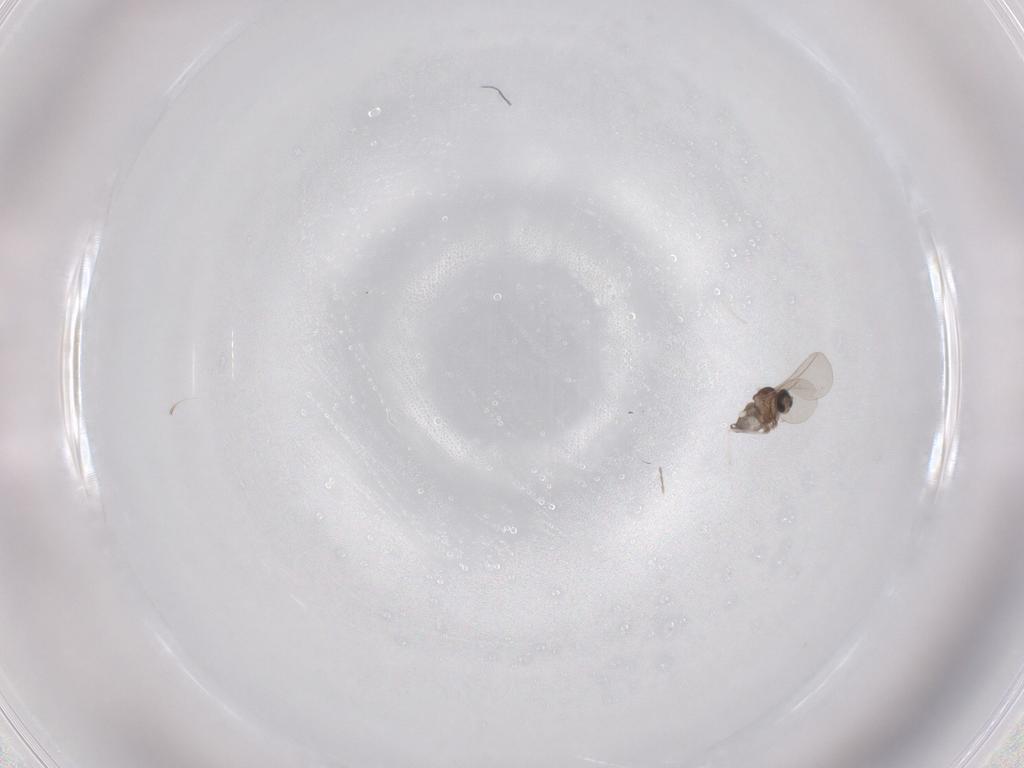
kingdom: Animalia
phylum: Arthropoda
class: Insecta
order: Diptera
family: Cecidomyiidae
